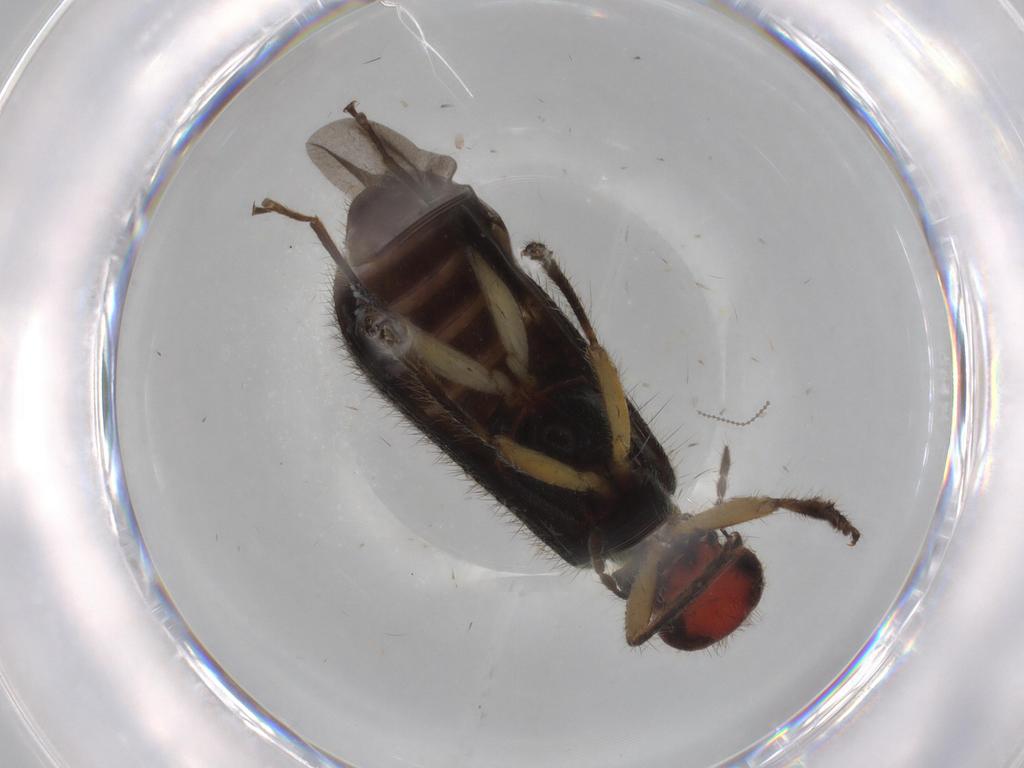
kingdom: Animalia
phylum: Arthropoda
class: Insecta
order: Coleoptera
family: Cleridae
